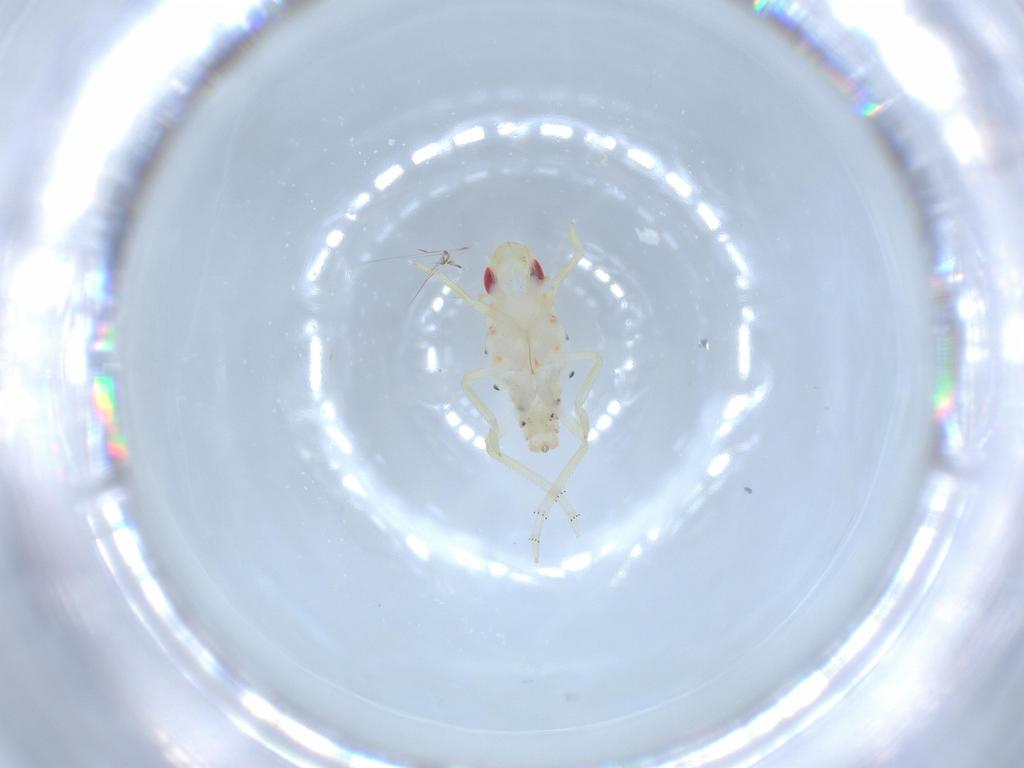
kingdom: Animalia
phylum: Arthropoda
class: Insecta
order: Hemiptera
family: Tropiduchidae
